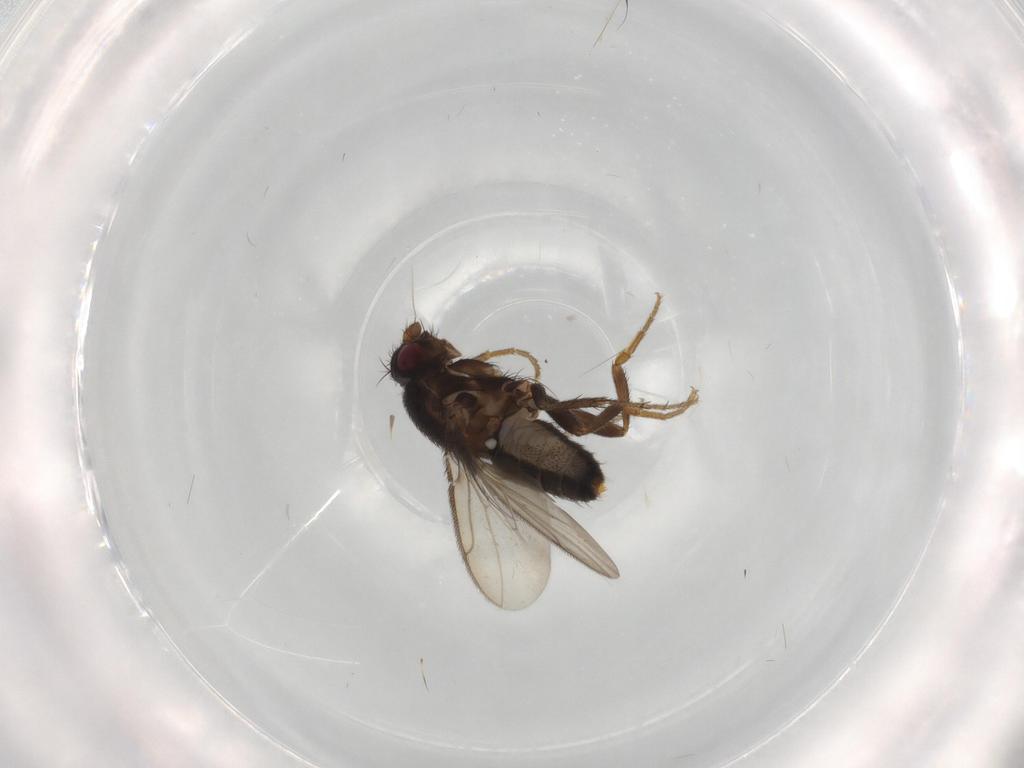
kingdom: Animalia
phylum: Arthropoda
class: Insecta
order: Diptera
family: Sphaeroceridae
